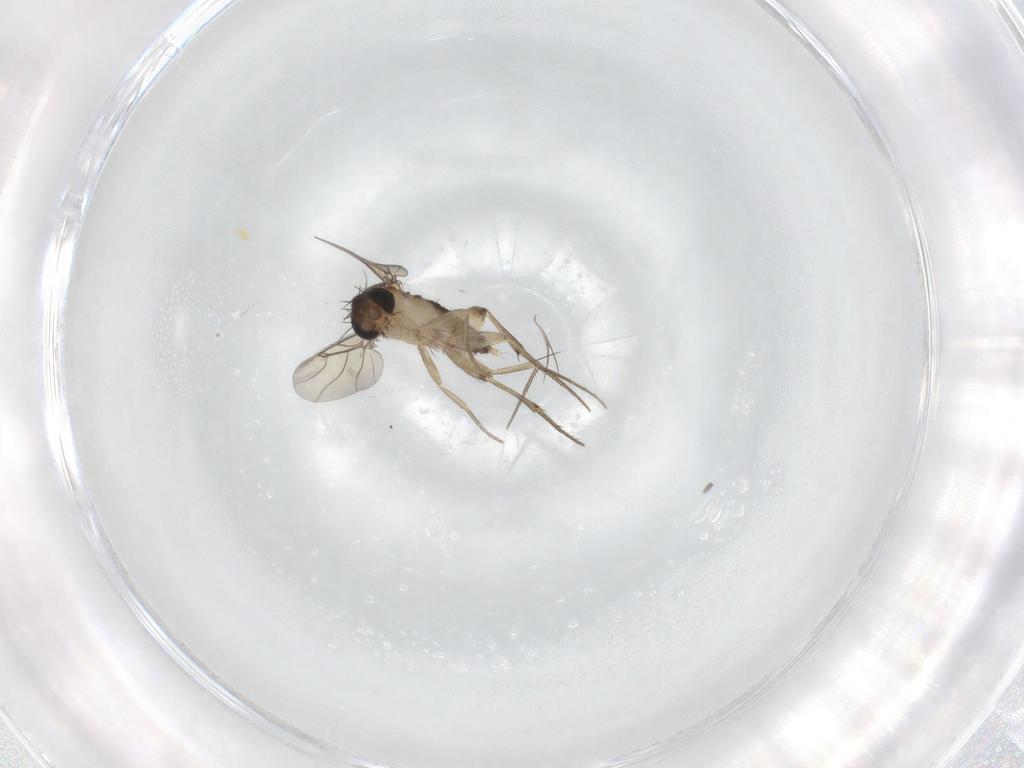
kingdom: Animalia
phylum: Arthropoda
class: Insecta
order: Diptera
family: Phoridae
